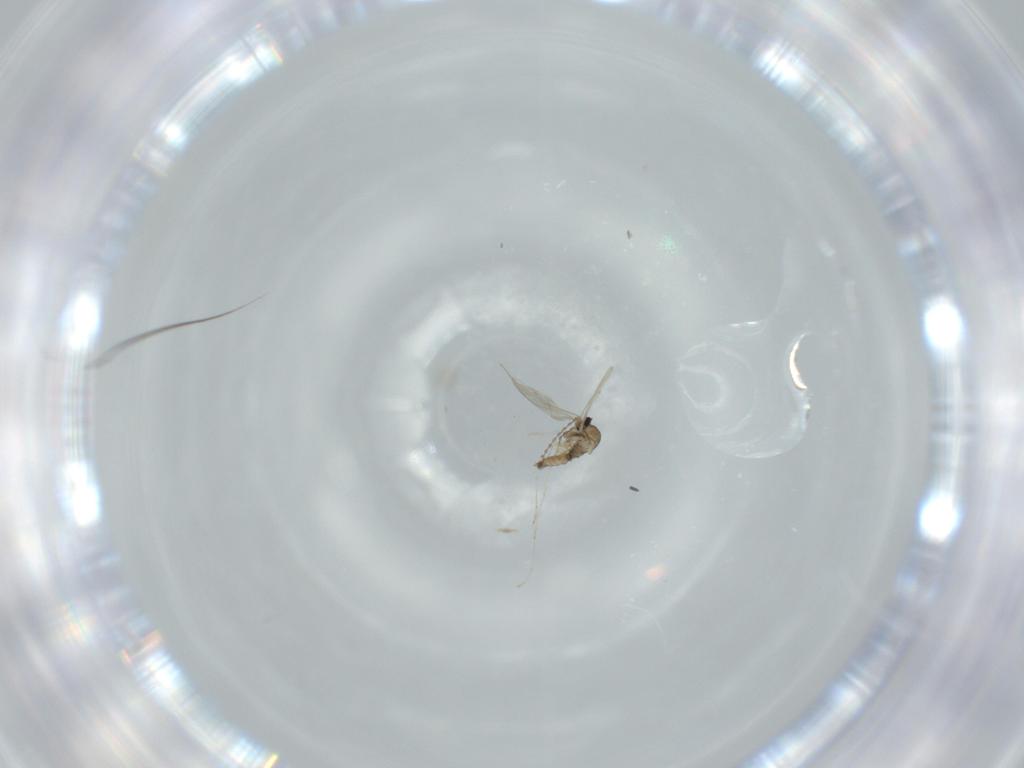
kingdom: Animalia
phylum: Arthropoda
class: Insecta
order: Diptera
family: Cecidomyiidae
